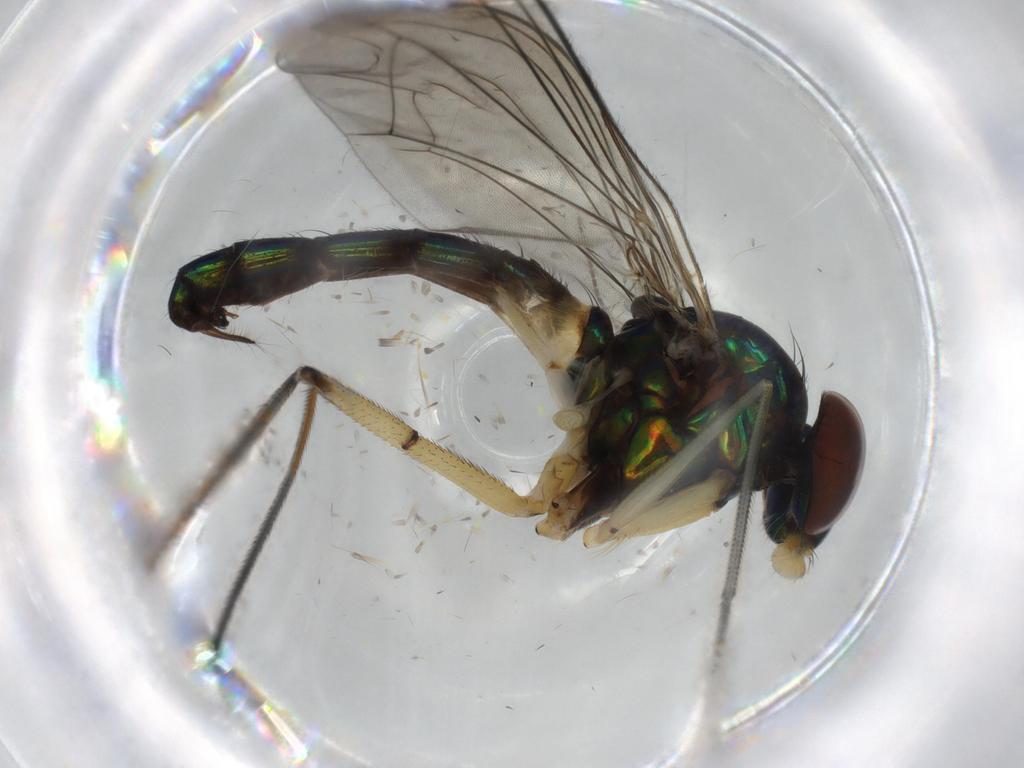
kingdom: Animalia
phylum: Arthropoda
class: Insecta
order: Diptera
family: Dolichopodidae
